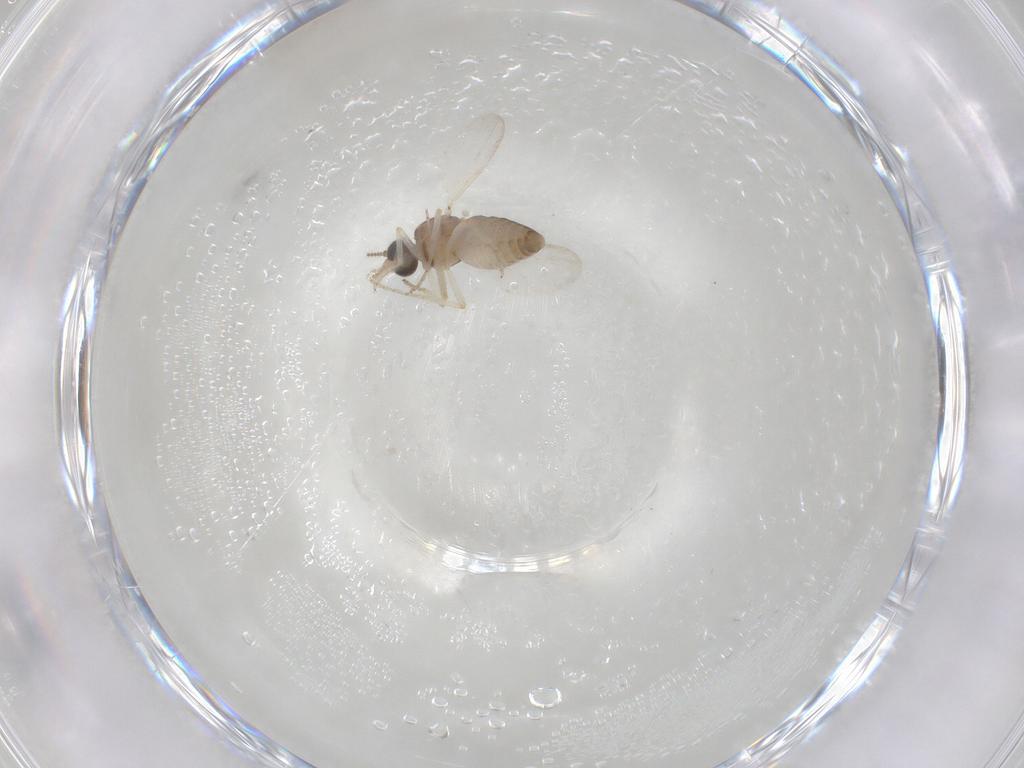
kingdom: Animalia
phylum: Arthropoda
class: Insecta
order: Diptera
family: Ceratopogonidae
